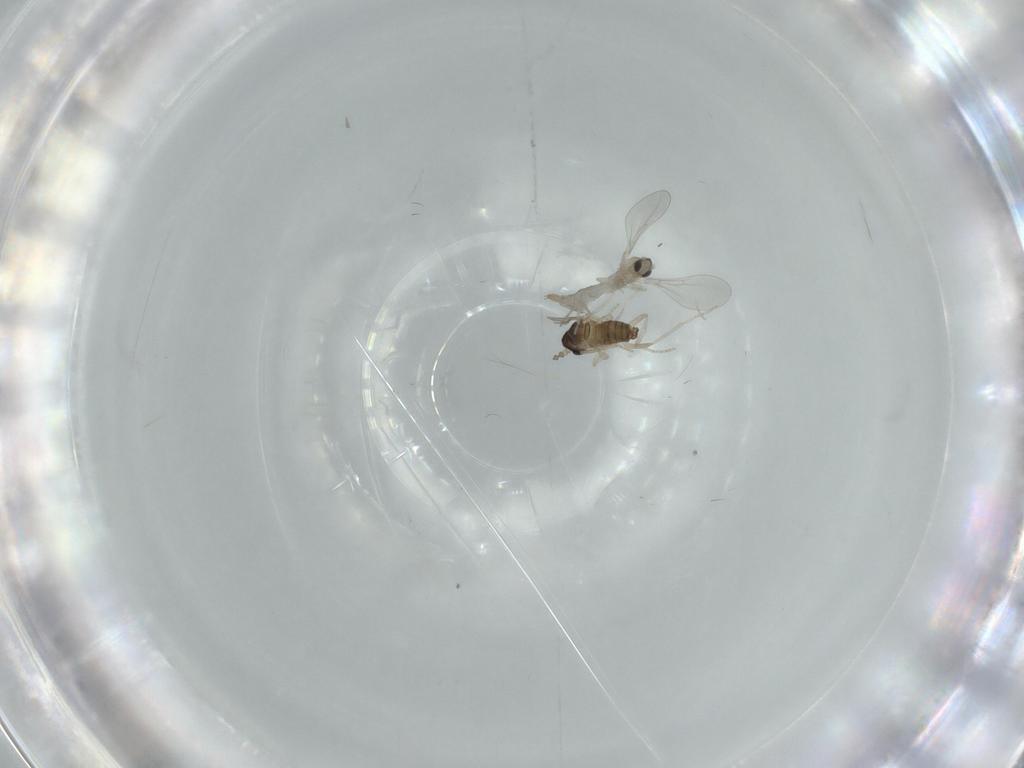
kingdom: Animalia
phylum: Arthropoda
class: Insecta
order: Diptera
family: Cecidomyiidae
